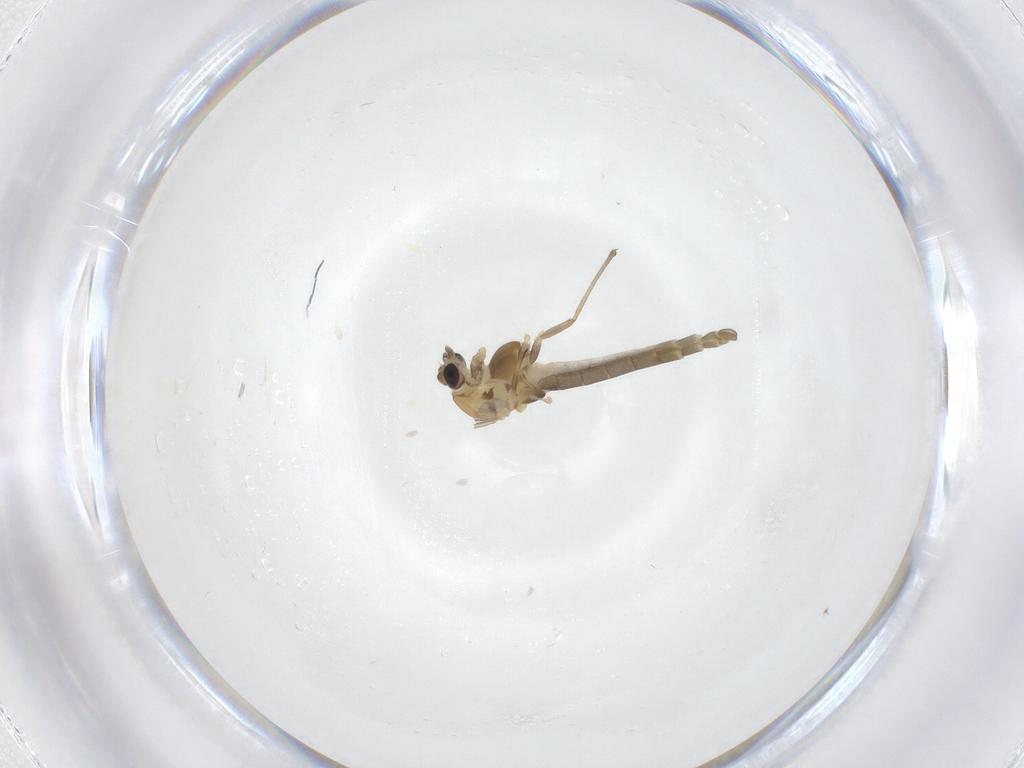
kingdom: Animalia
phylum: Arthropoda
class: Insecta
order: Diptera
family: Chironomidae
